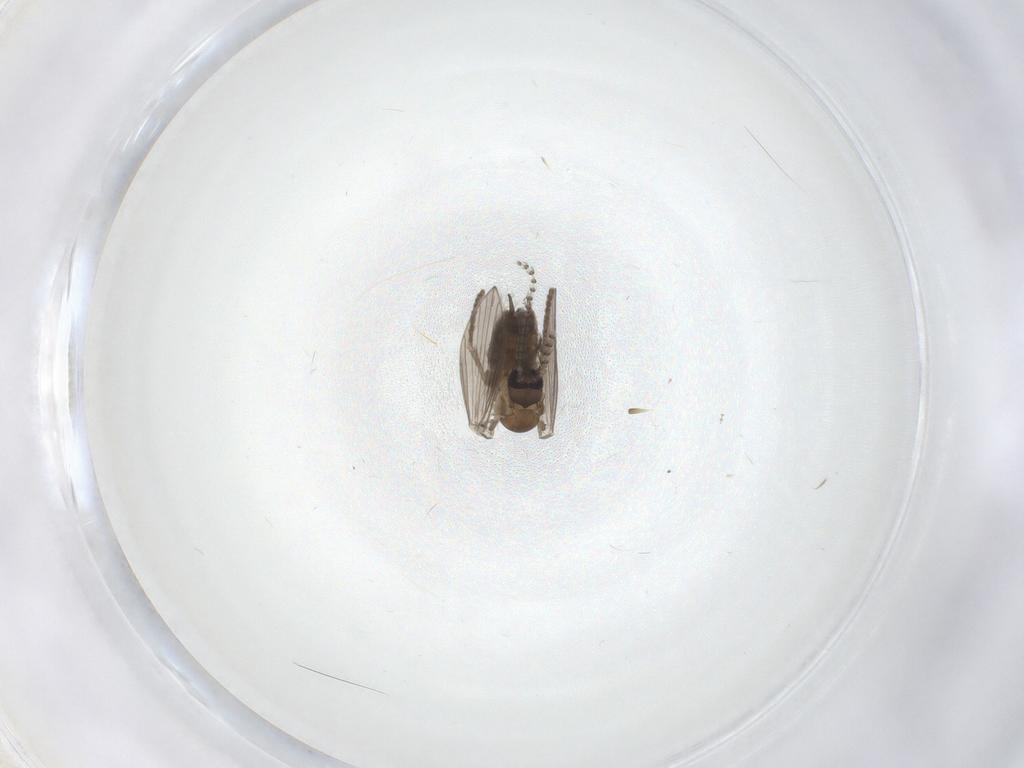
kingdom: Animalia
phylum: Arthropoda
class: Insecta
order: Diptera
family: Psychodidae
